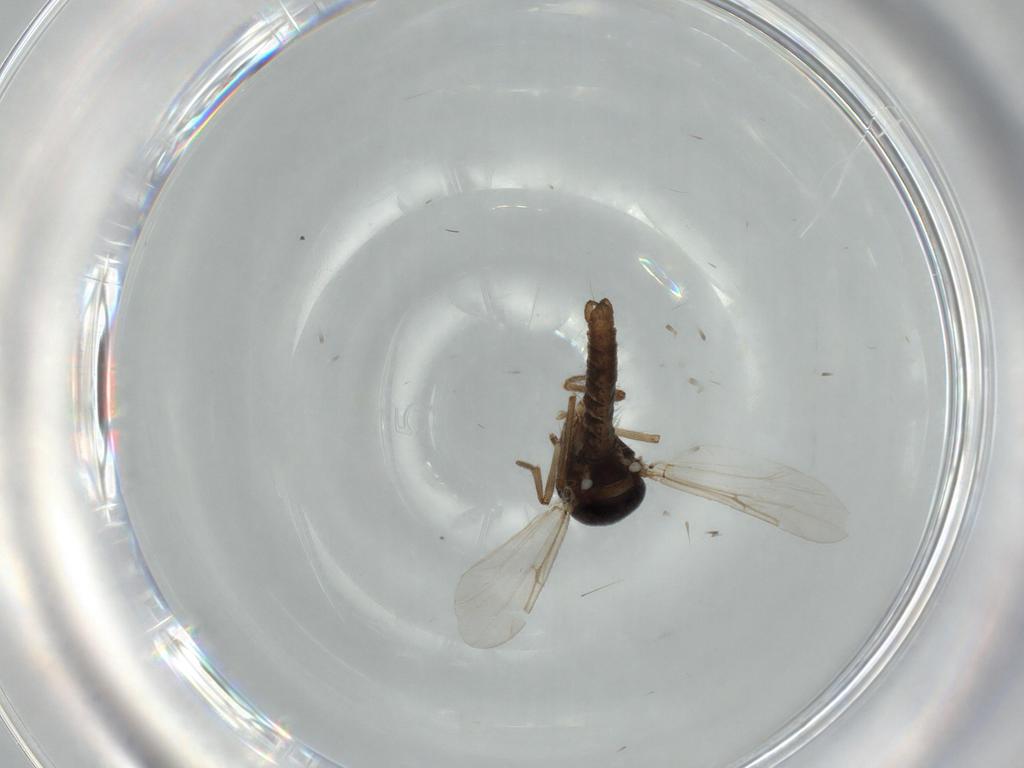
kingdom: Animalia
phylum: Arthropoda
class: Insecta
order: Diptera
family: Ceratopogonidae
